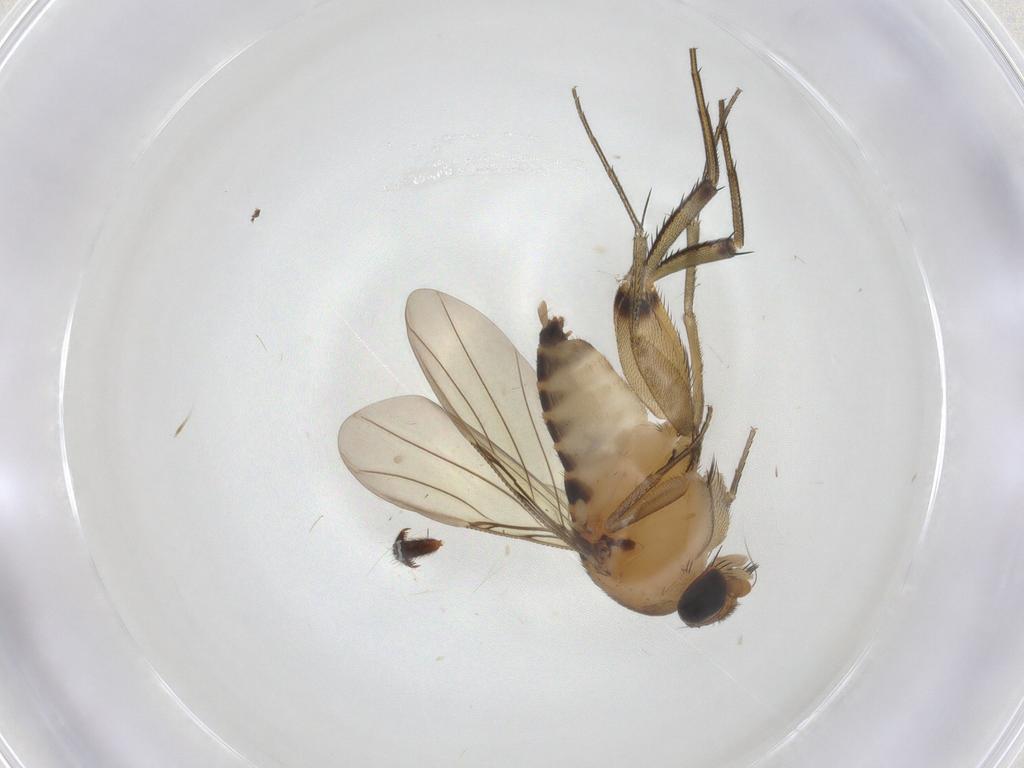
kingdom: Animalia
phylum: Arthropoda
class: Insecta
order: Diptera
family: Phoridae
